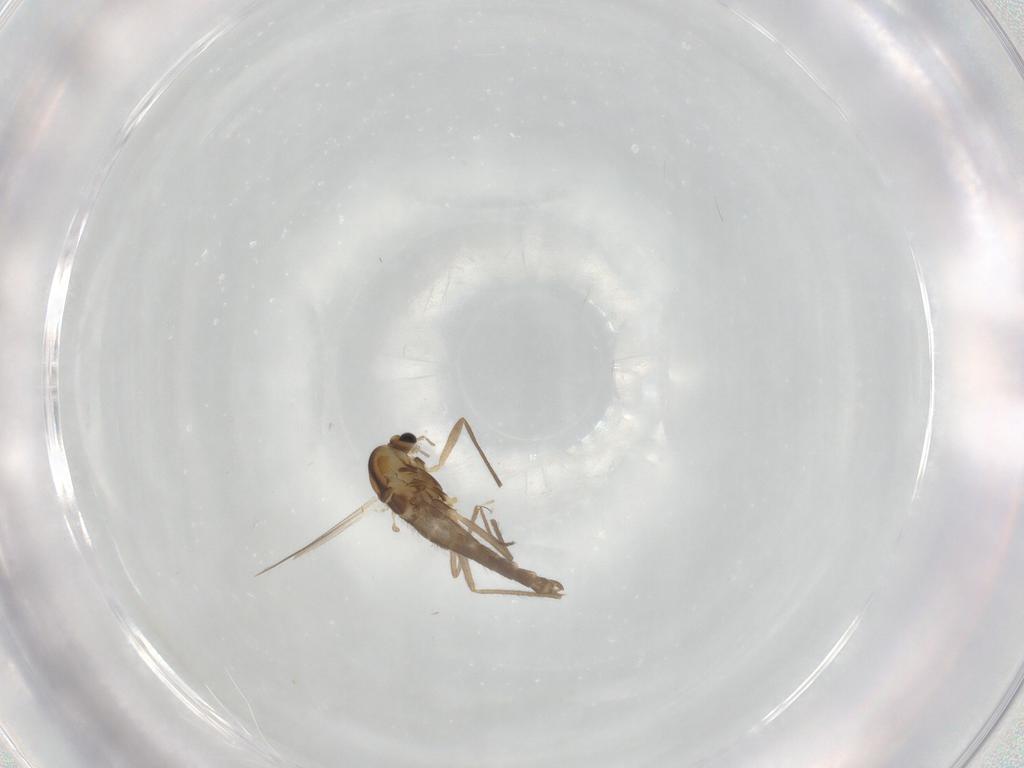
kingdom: Animalia
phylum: Arthropoda
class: Insecta
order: Diptera
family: Chironomidae
